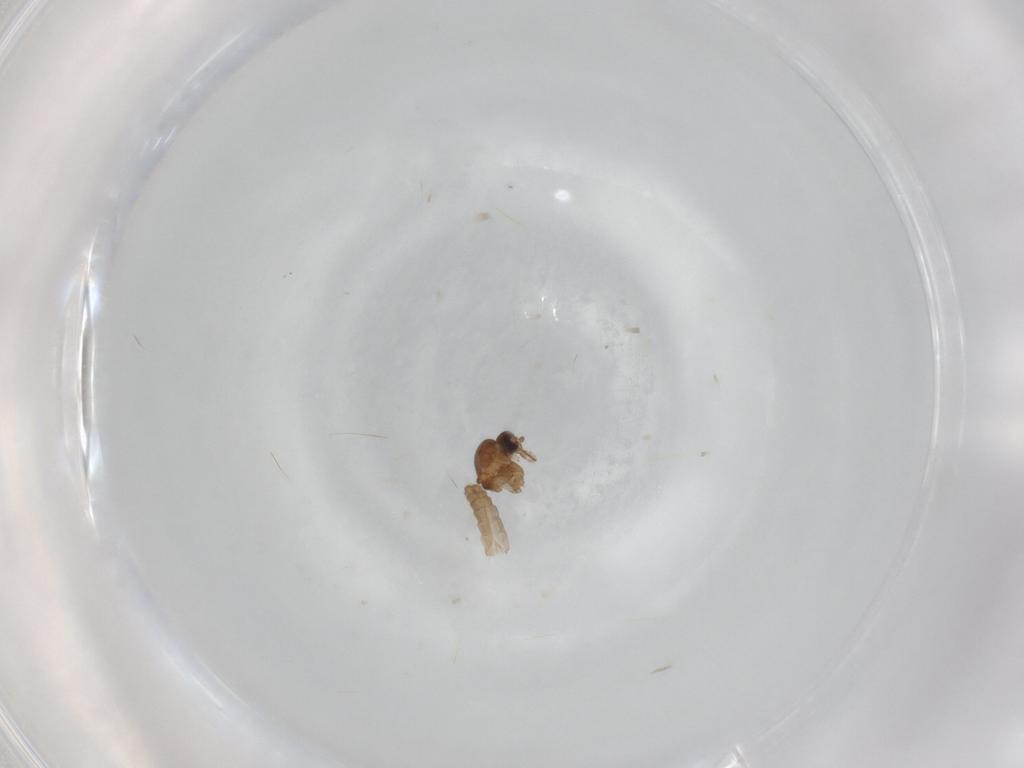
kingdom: Animalia
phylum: Arthropoda
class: Insecta
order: Diptera
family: Ceratopogonidae
